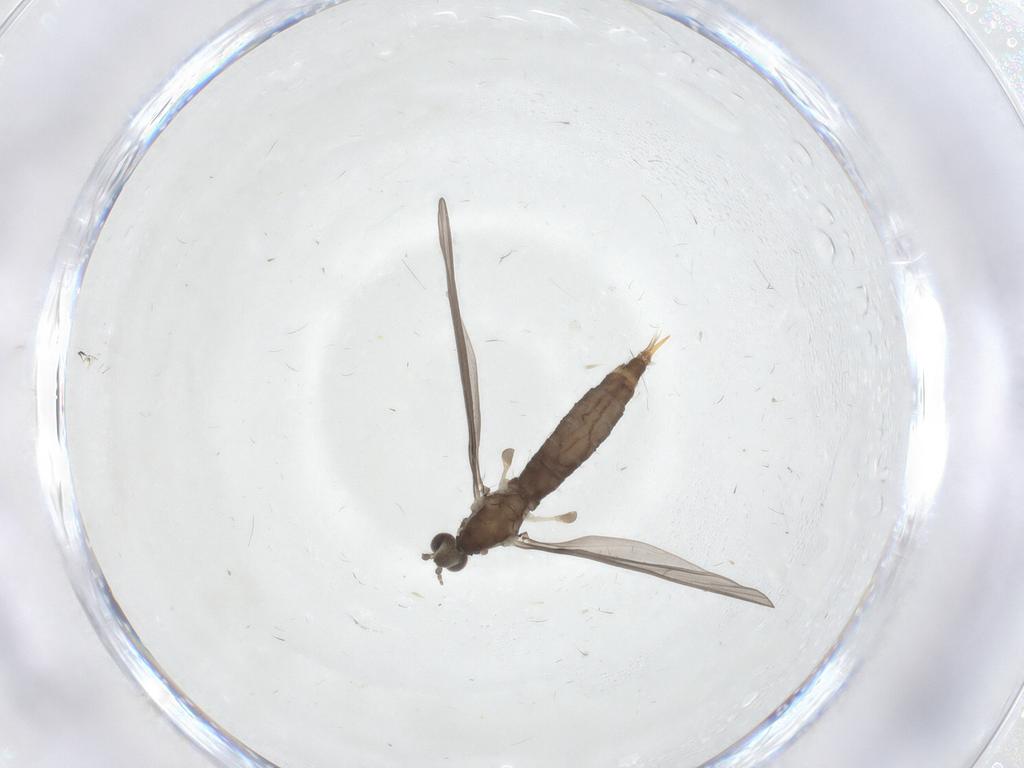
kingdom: Animalia
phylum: Arthropoda
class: Insecta
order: Diptera
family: Limoniidae
